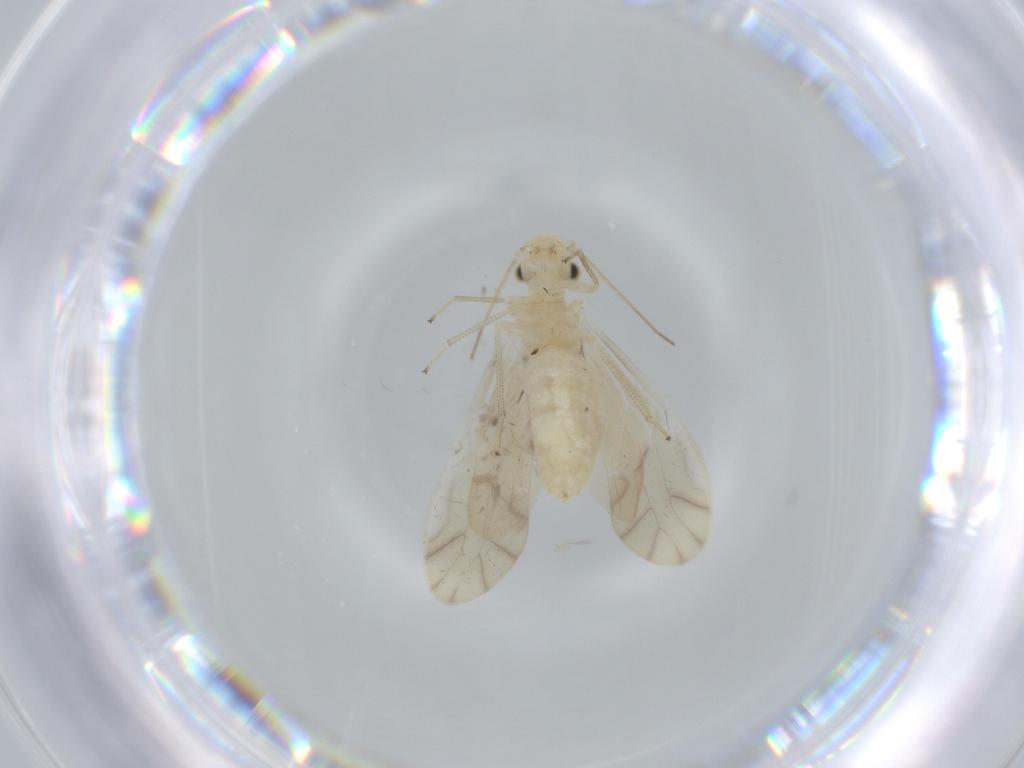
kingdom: Animalia
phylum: Arthropoda
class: Insecta
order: Psocodea
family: Caeciliusidae
